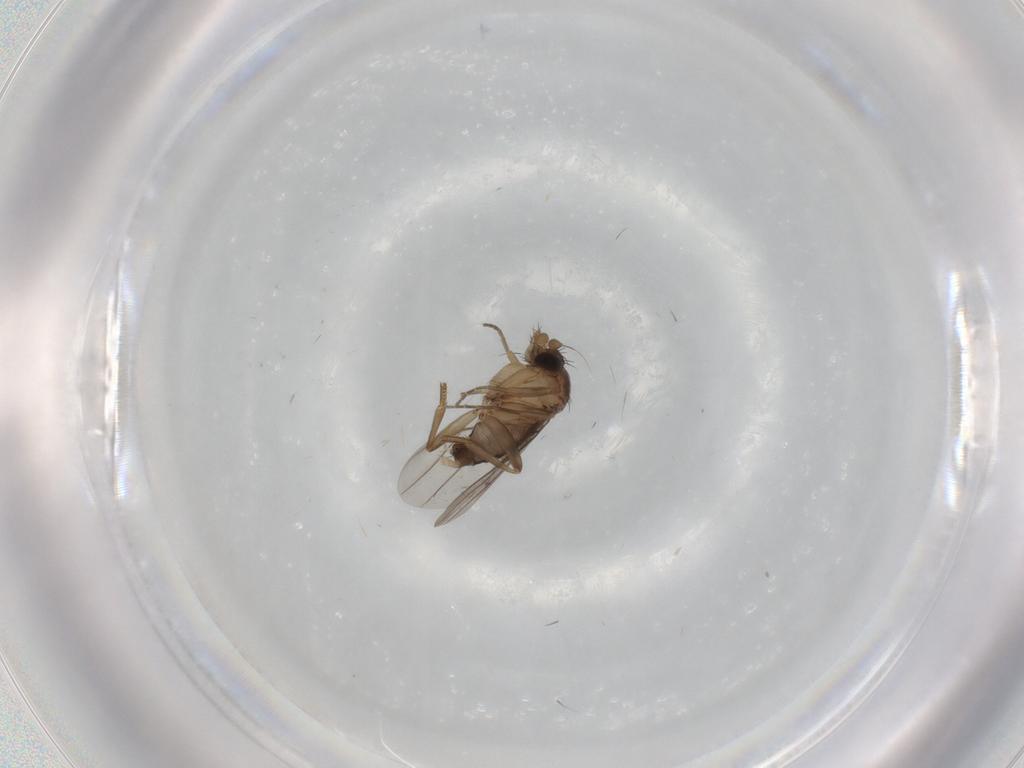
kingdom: Animalia
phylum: Arthropoda
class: Insecta
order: Diptera
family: Phoridae
